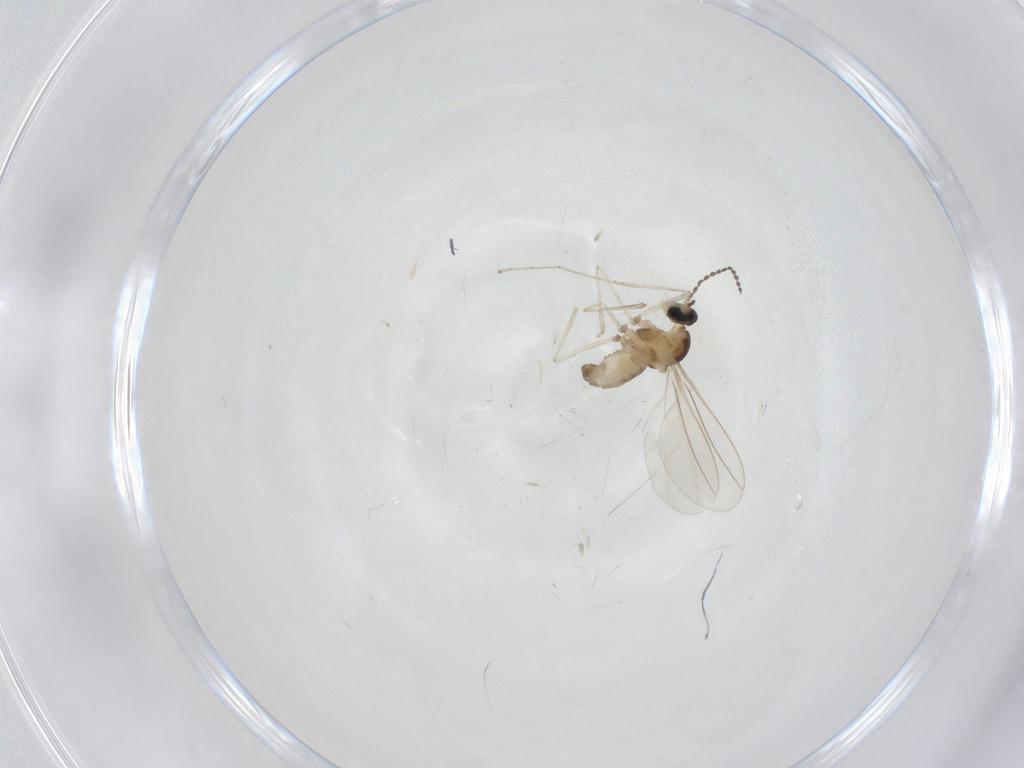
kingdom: Animalia
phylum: Arthropoda
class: Insecta
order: Diptera
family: Cecidomyiidae
